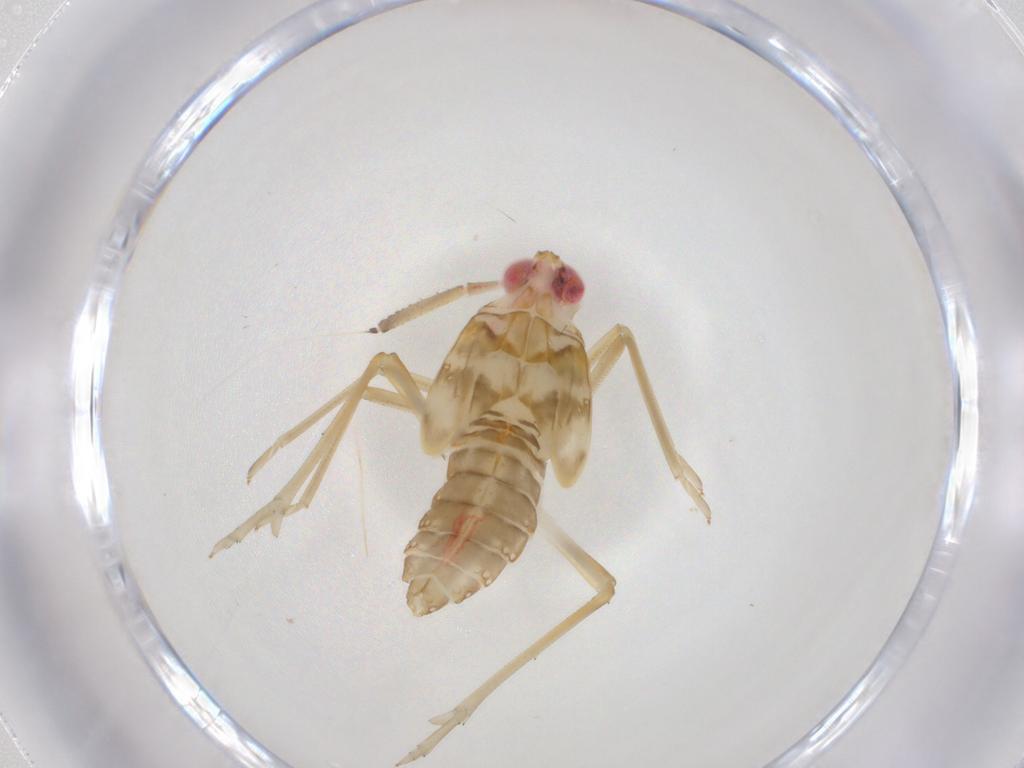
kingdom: Animalia
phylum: Arthropoda
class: Insecta
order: Hemiptera
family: Delphacidae
